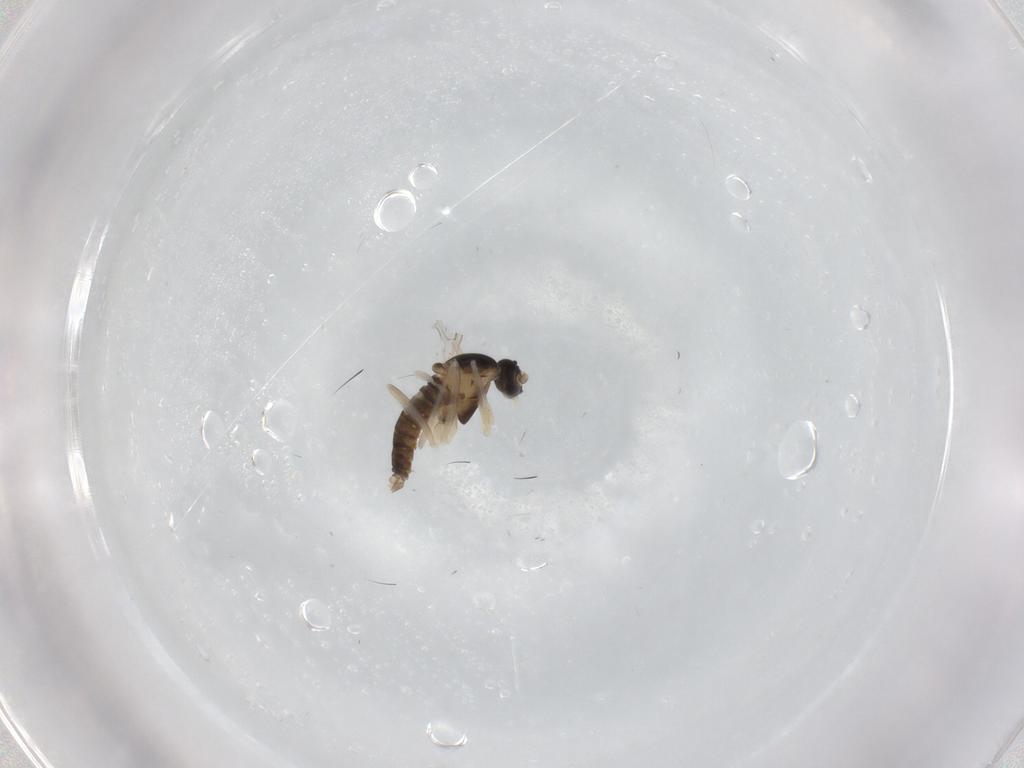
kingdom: Animalia
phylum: Arthropoda
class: Insecta
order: Diptera
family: Cecidomyiidae
